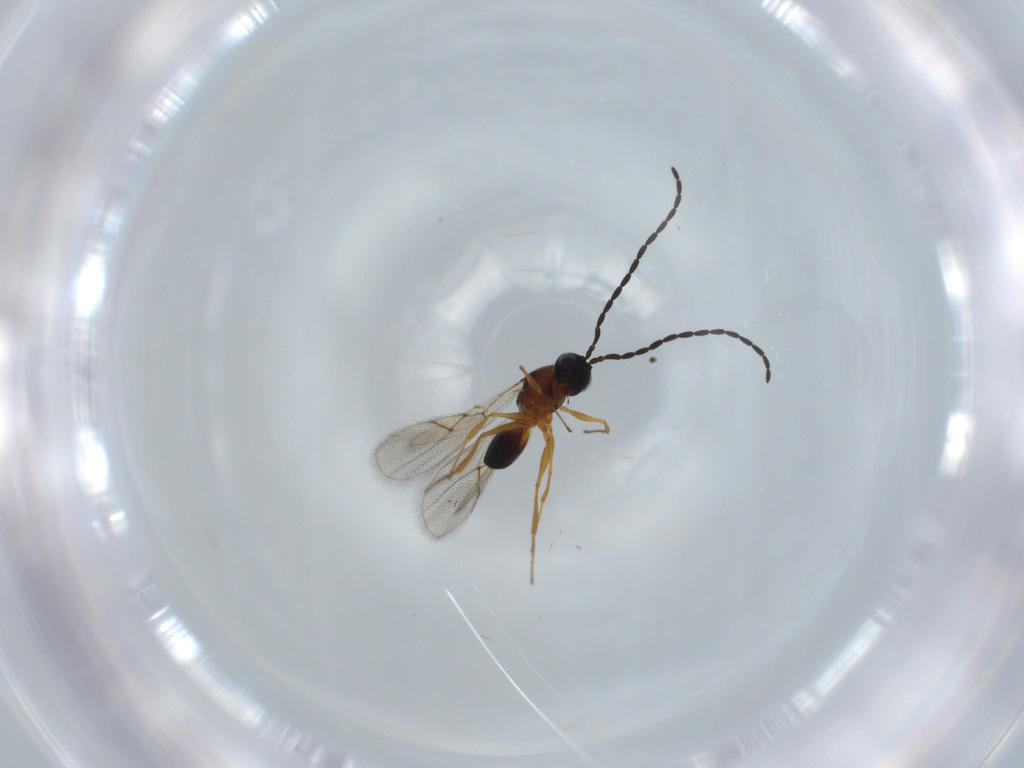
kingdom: Animalia
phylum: Arthropoda
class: Insecta
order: Hymenoptera
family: Figitidae
